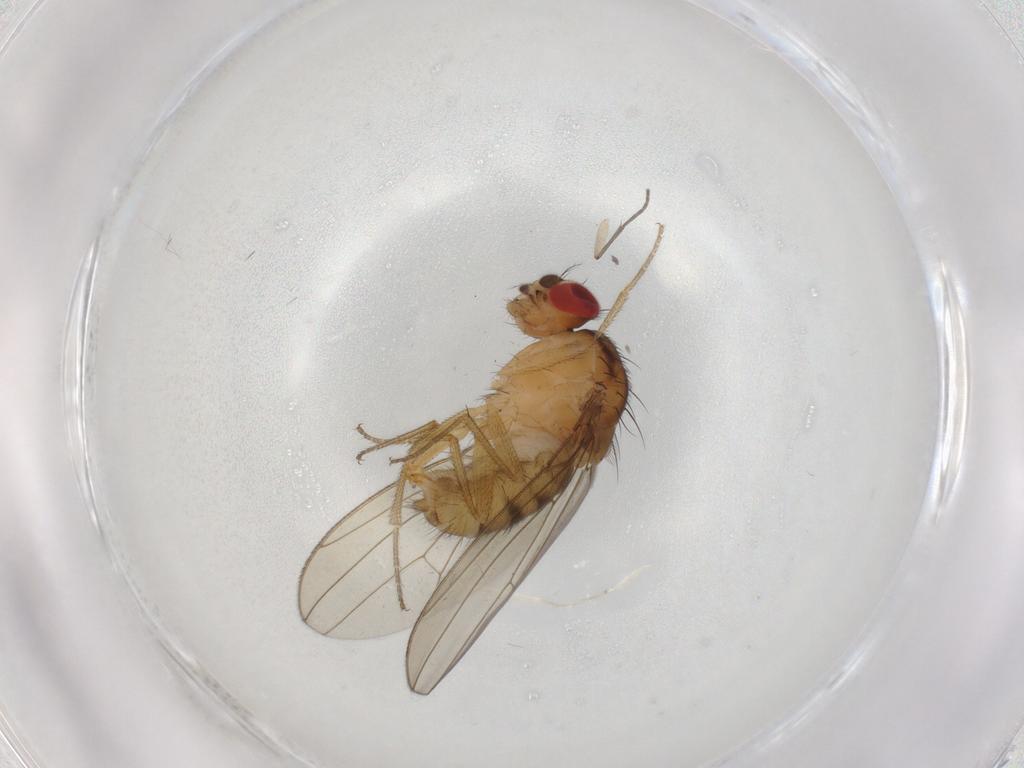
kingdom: Animalia
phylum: Arthropoda
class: Insecta
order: Diptera
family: Drosophilidae
